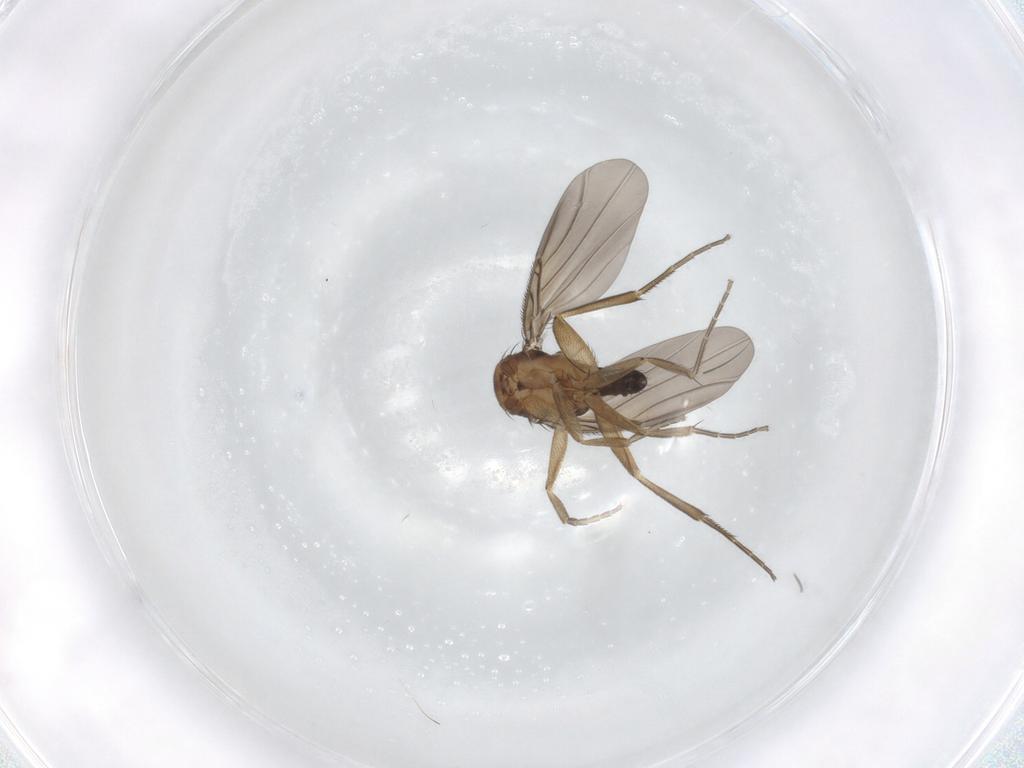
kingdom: Animalia
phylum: Arthropoda
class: Insecta
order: Diptera
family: Phoridae
